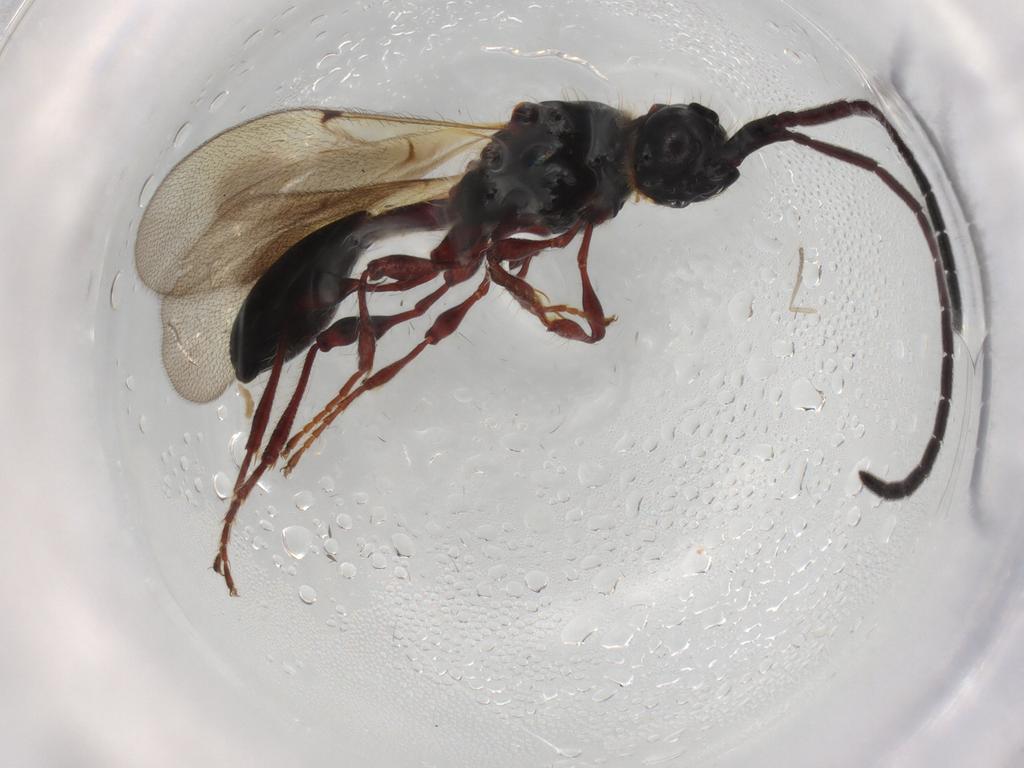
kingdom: Animalia
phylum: Arthropoda
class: Insecta
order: Hymenoptera
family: Diapriidae
